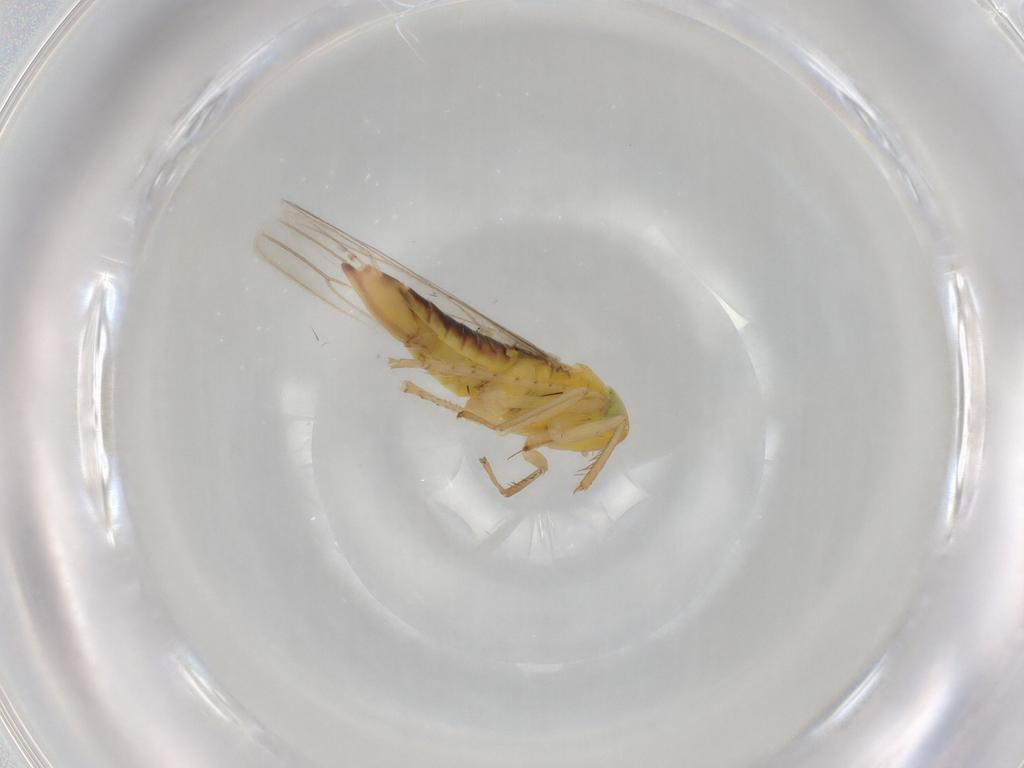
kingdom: Animalia
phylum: Arthropoda
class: Insecta
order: Hemiptera
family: Cicadellidae
